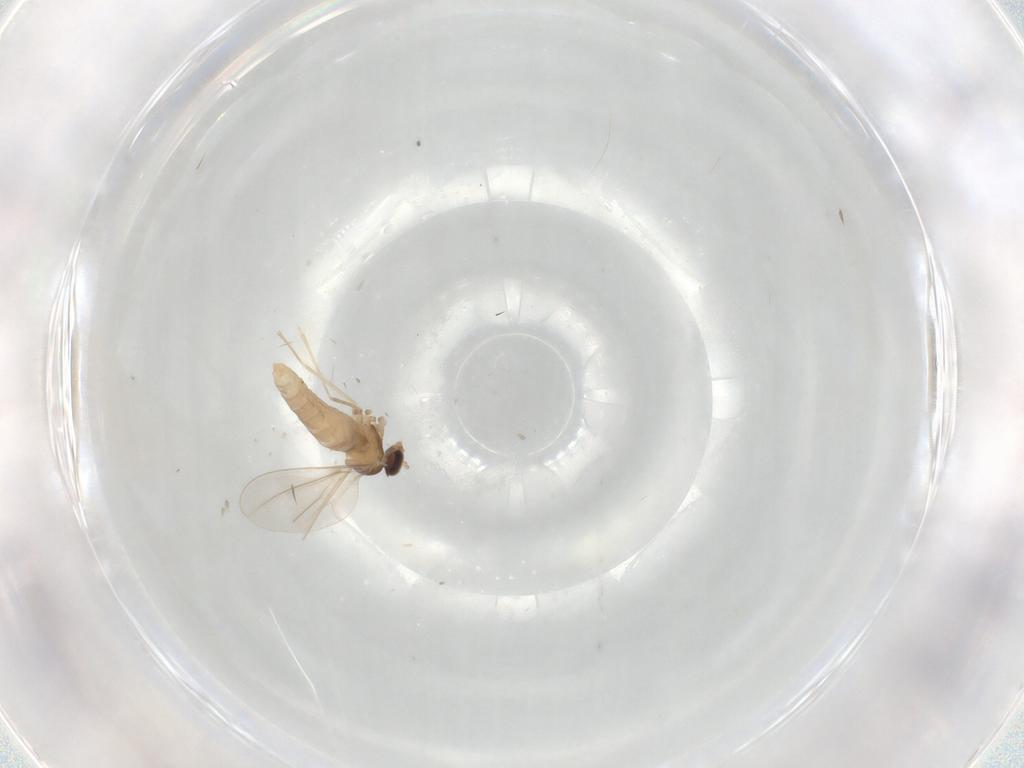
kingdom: Animalia
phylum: Arthropoda
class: Insecta
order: Diptera
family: Cecidomyiidae
